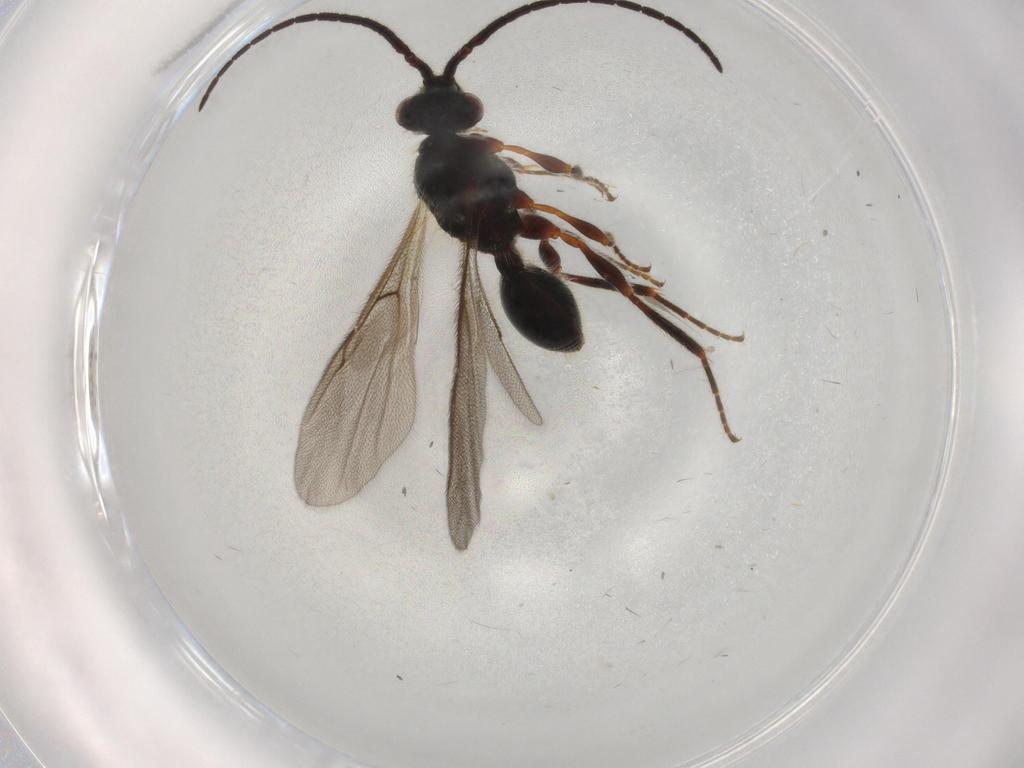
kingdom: Animalia
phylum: Arthropoda
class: Insecta
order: Hymenoptera
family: Diapriidae
